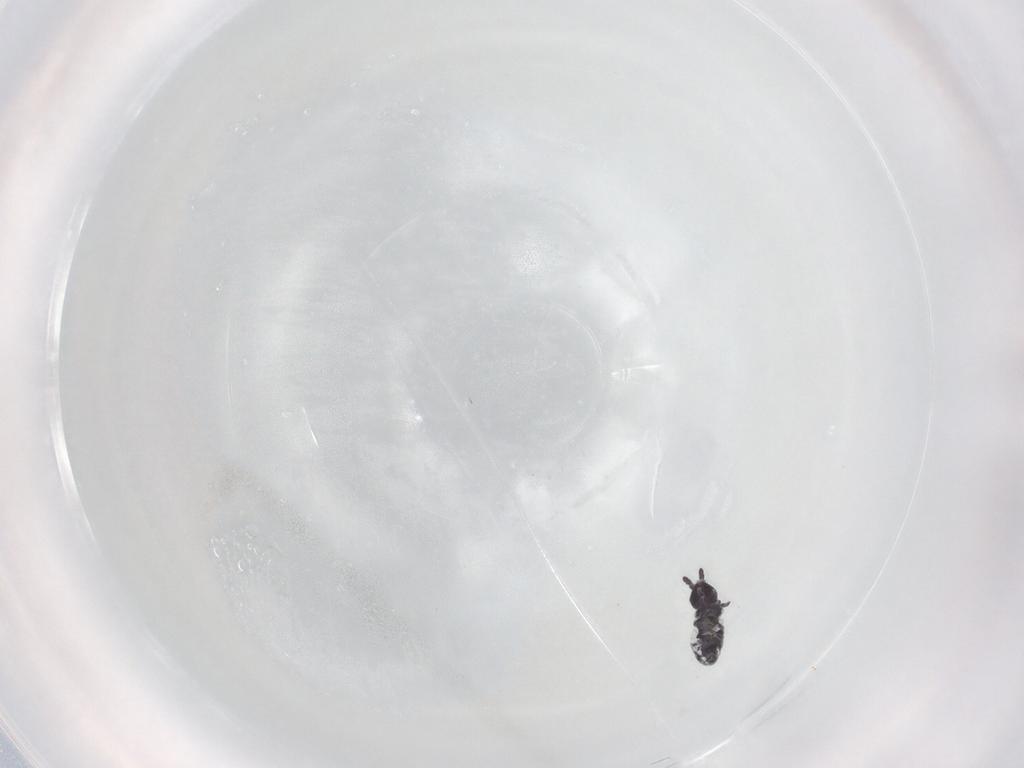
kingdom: Animalia
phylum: Arthropoda
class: Collembola
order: Poduromorpha
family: Hypogastruridae
